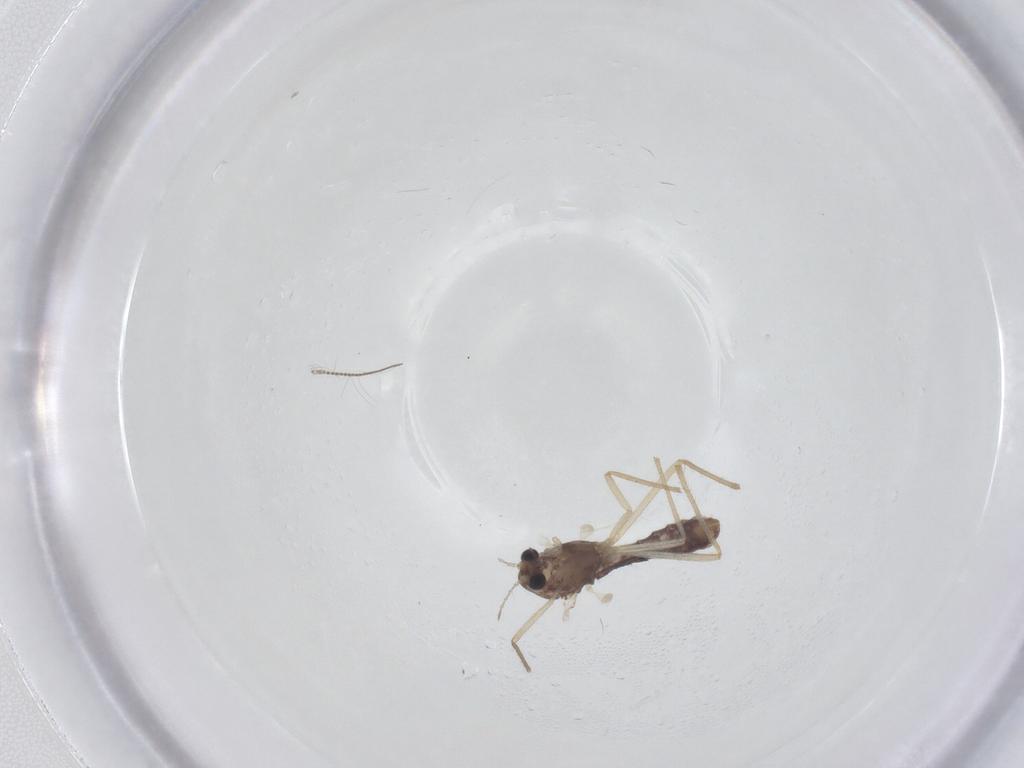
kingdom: Animalia
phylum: Arthropoda
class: Insecta
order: Diptera
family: Chironomidae
